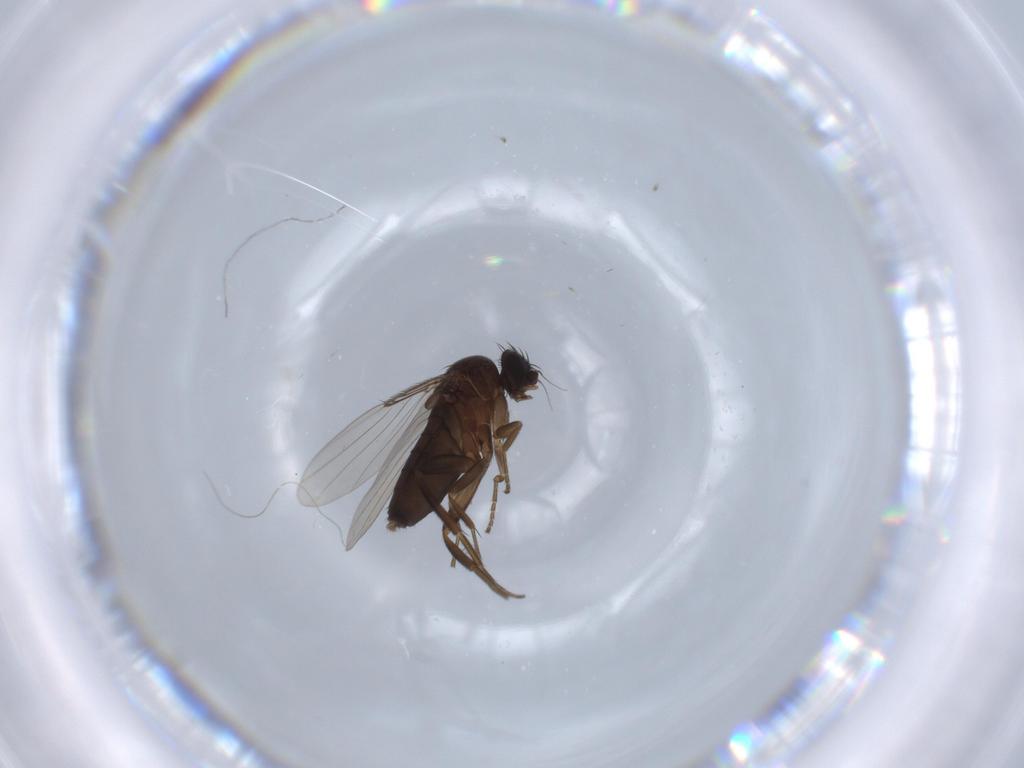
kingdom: Animalia
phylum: Arthropoda
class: Insecta
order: Diptera
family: Phoridae
